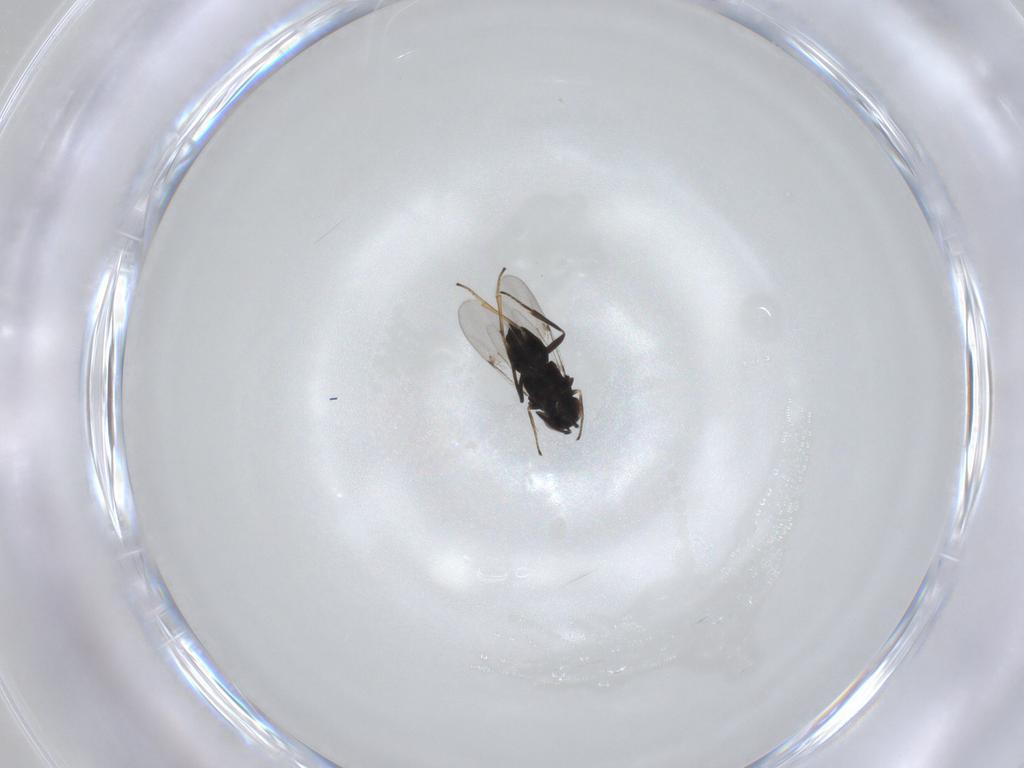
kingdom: Animalia
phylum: Arthropoda
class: Insecta
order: Hymenoptera
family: Encyrtidae
